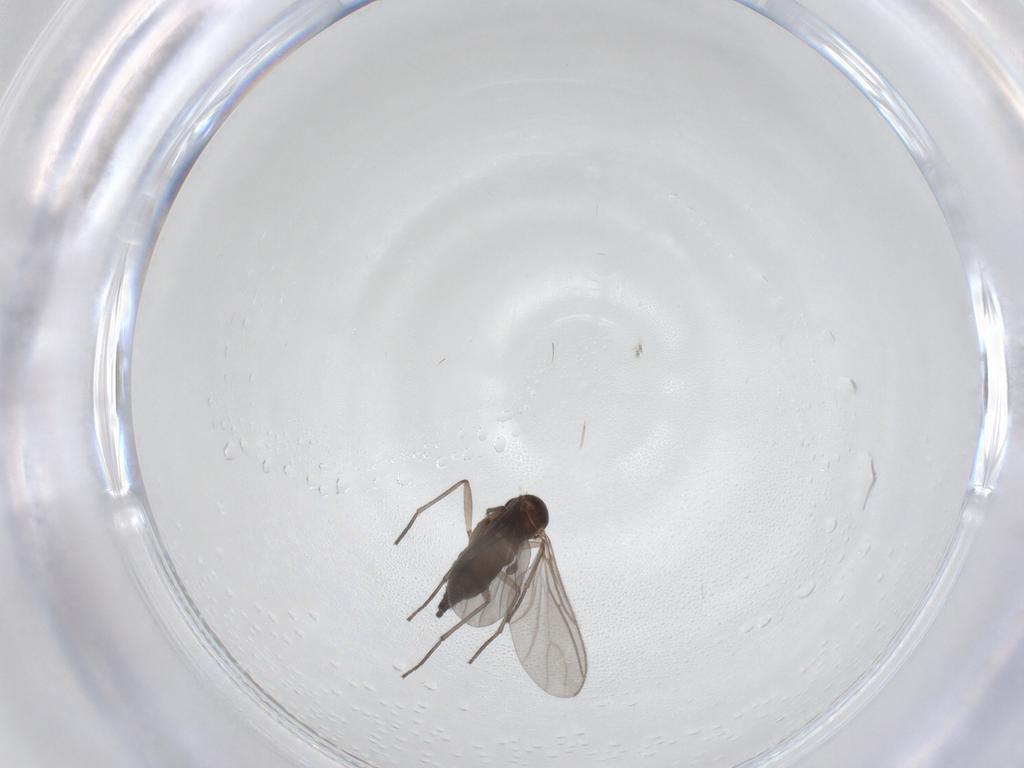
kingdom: Animalia
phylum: Arthropoda
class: Insecta
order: Diptera
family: Sciaridae
